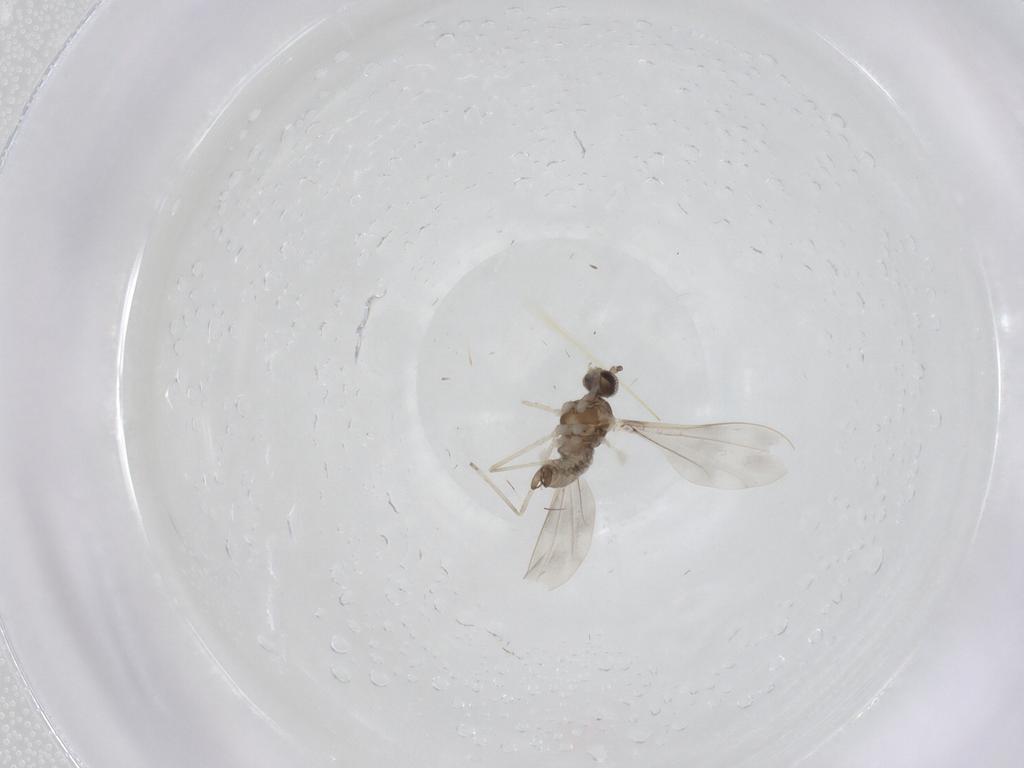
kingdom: Animalia
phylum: Arthropoda
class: Insecta
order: Diptera
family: Cecidomyiidae
